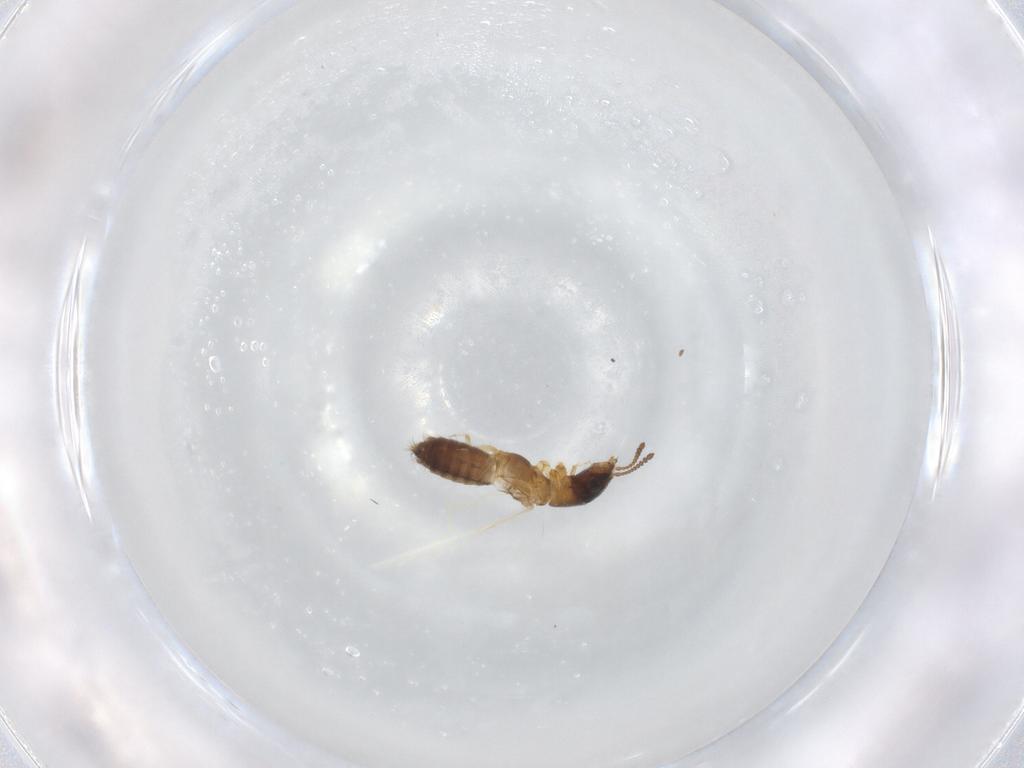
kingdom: Animalia
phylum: Arthropoda
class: Insecta
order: Coleoptera
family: Staphylinidae
